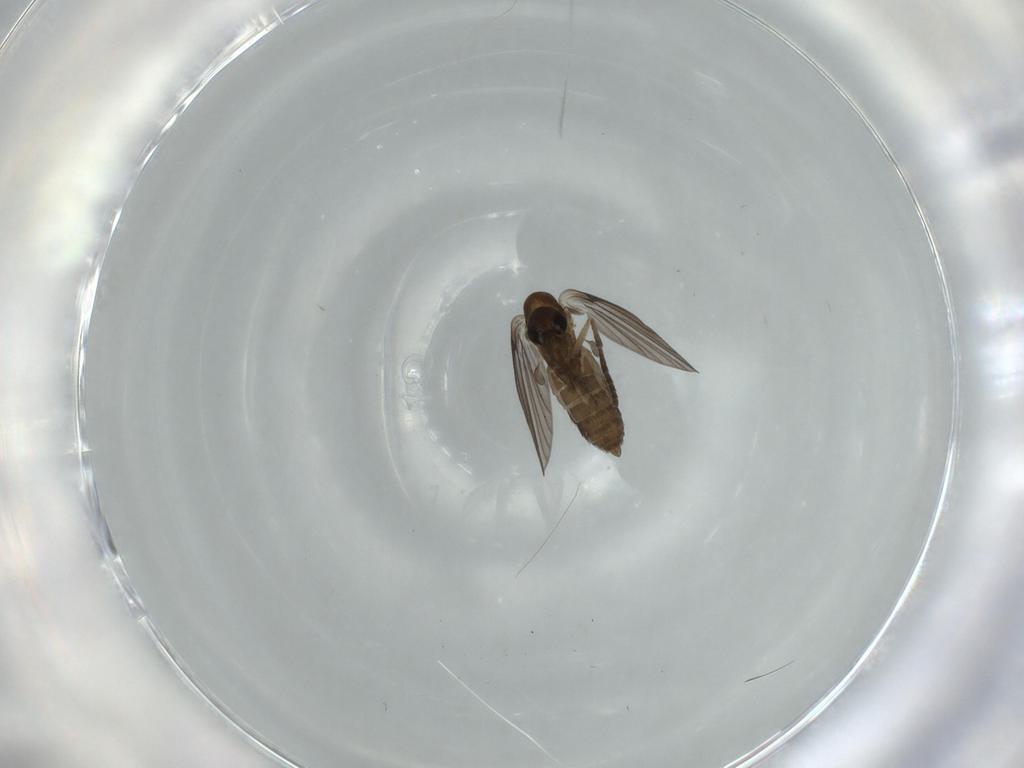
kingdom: Animalia
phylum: Arthropoda
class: Insecta
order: Diptera
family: Psychodidae
